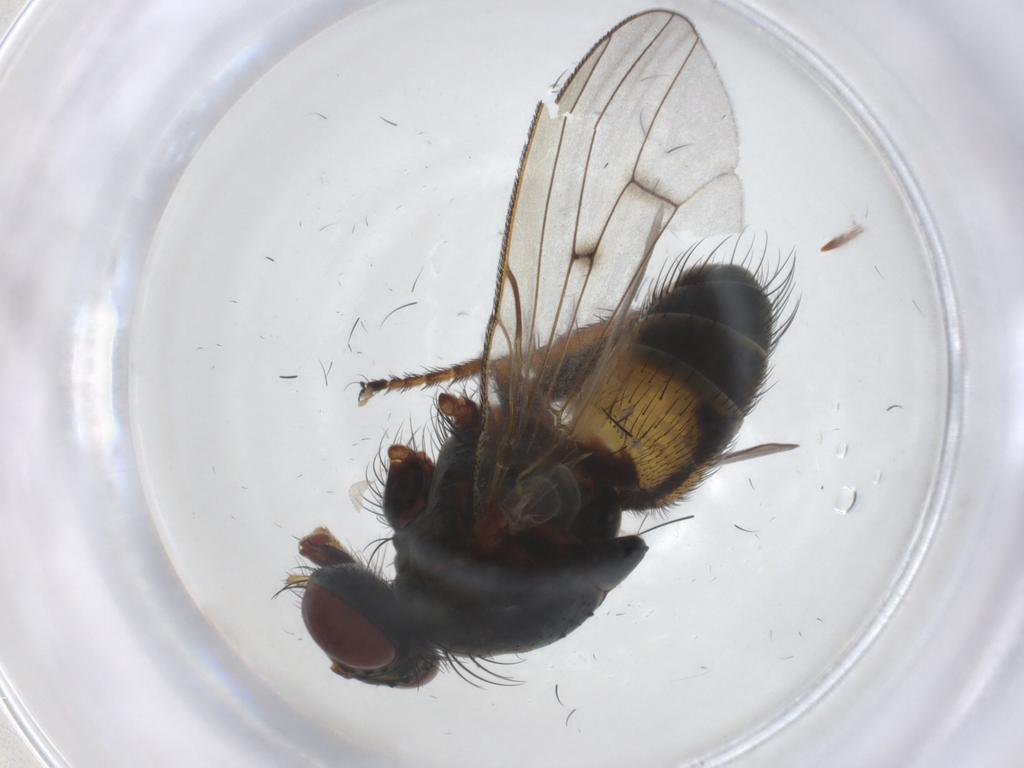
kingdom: Animalia
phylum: Arthropoda
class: Insecta
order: Diptera
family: Muscidae
